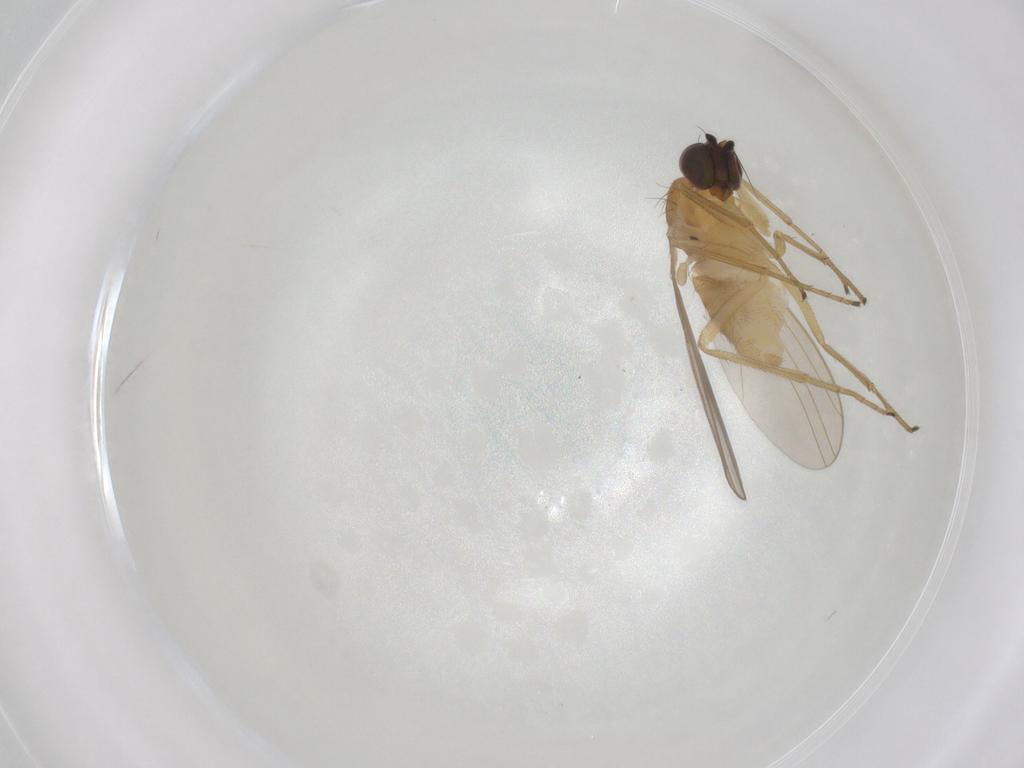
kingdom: Animalia
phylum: Arthropoda
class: Insecta
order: Diptera
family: Dolichopodidae
